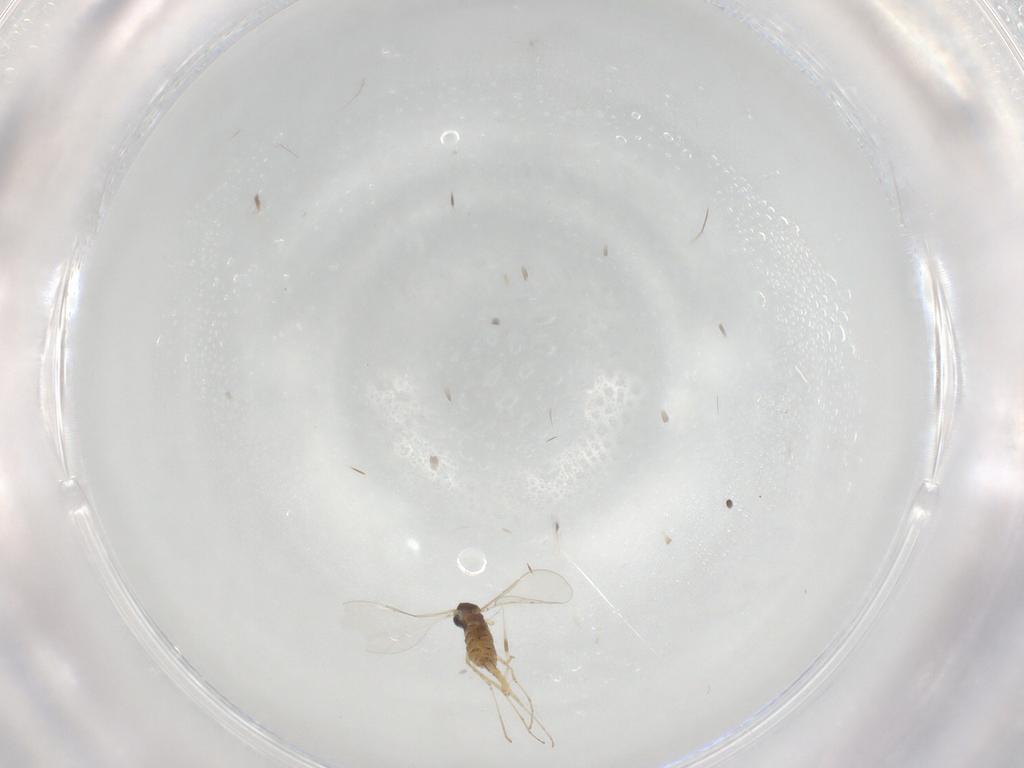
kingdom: Animalia
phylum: Arthropoda
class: Insecta
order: Diptera
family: Cecidomyiidae
